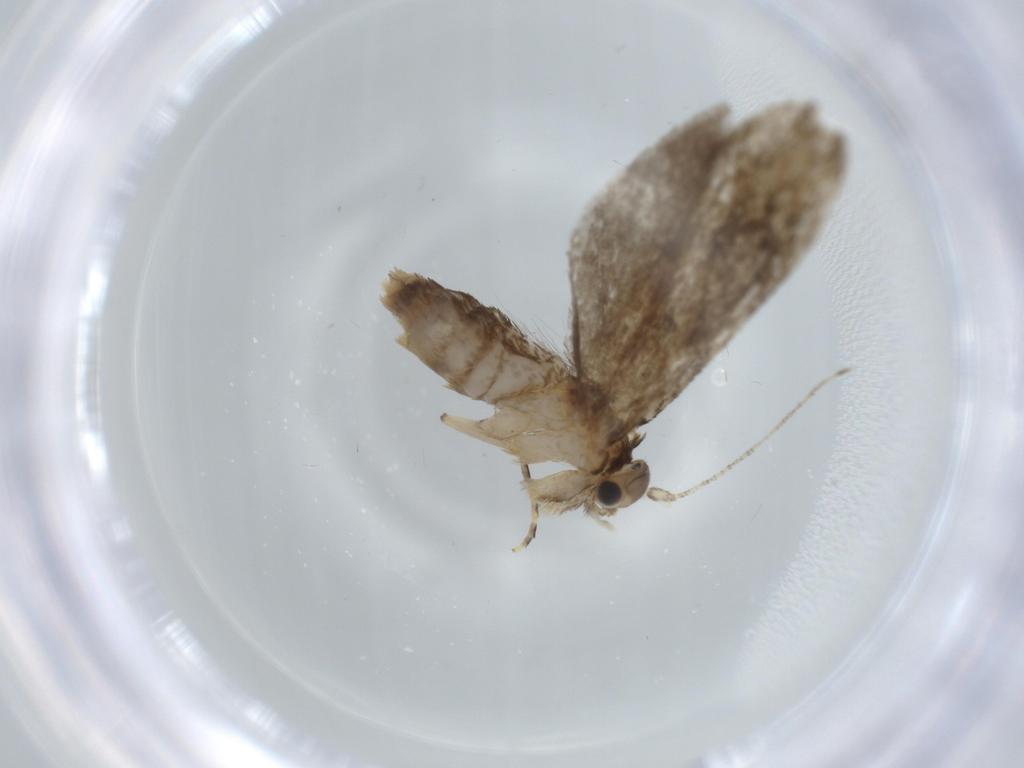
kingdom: Animalia
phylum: Arthropoda
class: Insecta
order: Lepidoptera
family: Tineidae
